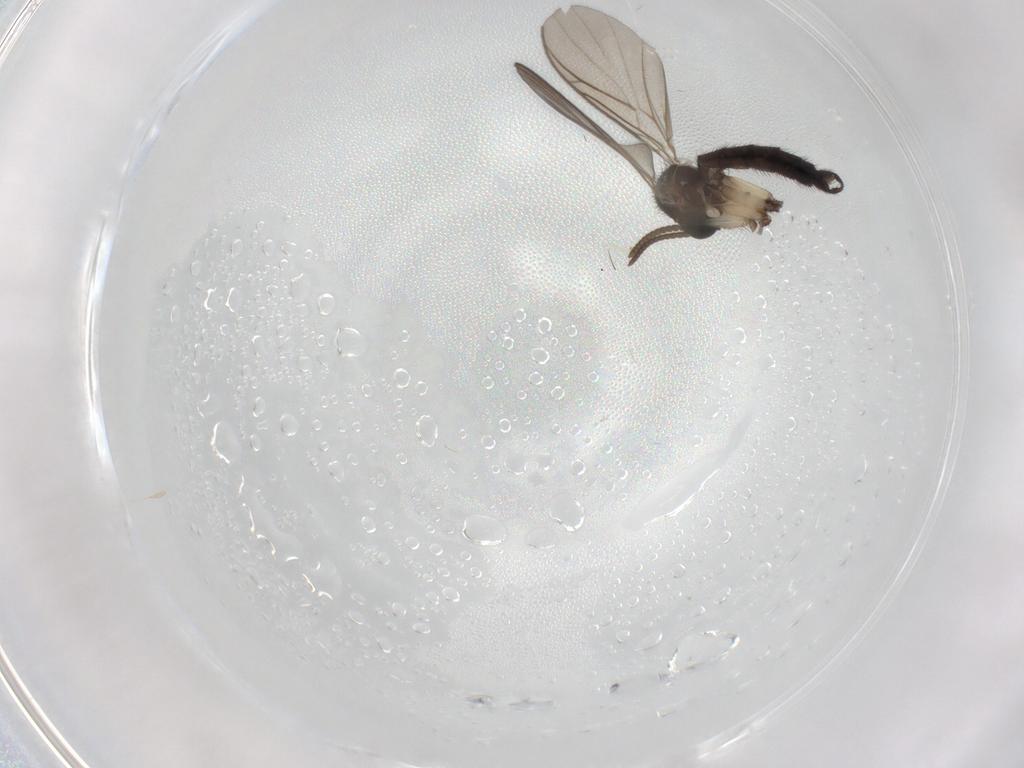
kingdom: Animalia
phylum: Arthropoda
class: Insecta
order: Diptera
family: Keroplatidae
